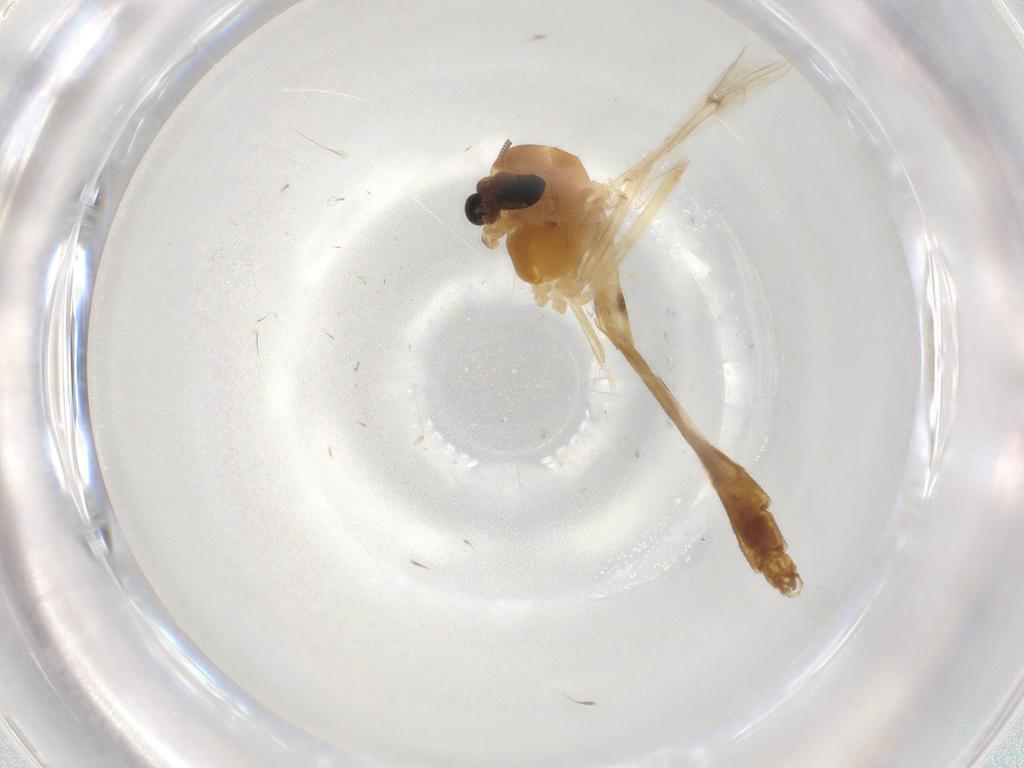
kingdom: Animalia
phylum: Arthropoda
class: Insecta
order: Diptera
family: Chironomidae
